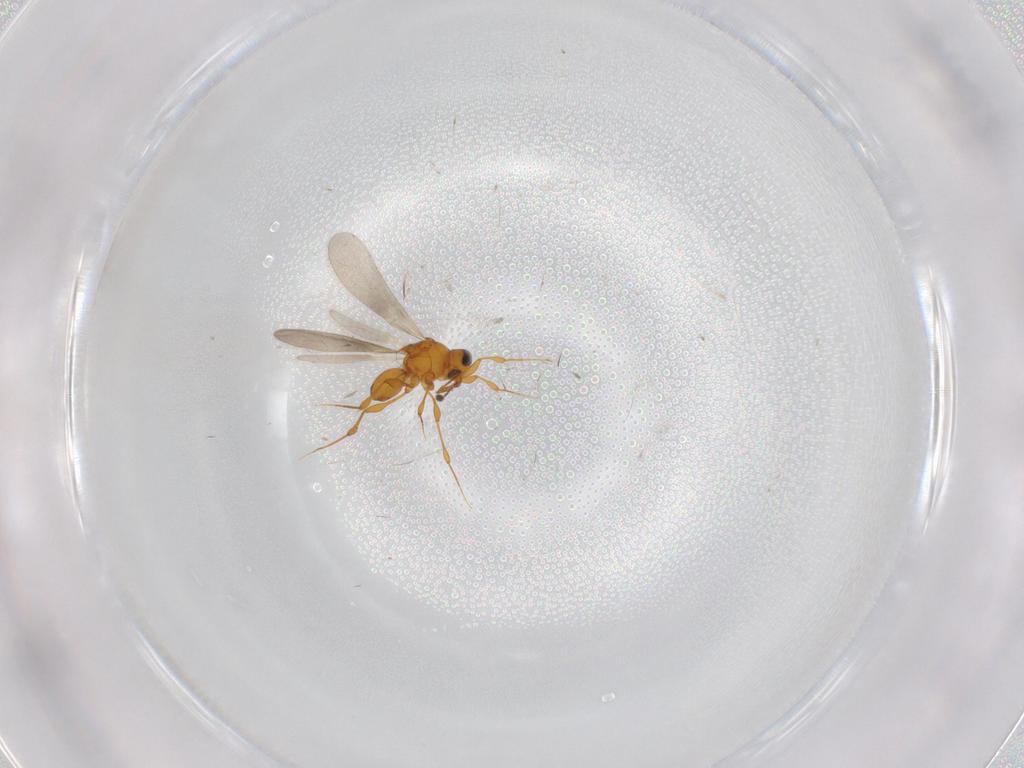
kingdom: Animalia
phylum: Arthropoda
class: Insecta
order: Hymenoptera
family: Platygastridae
